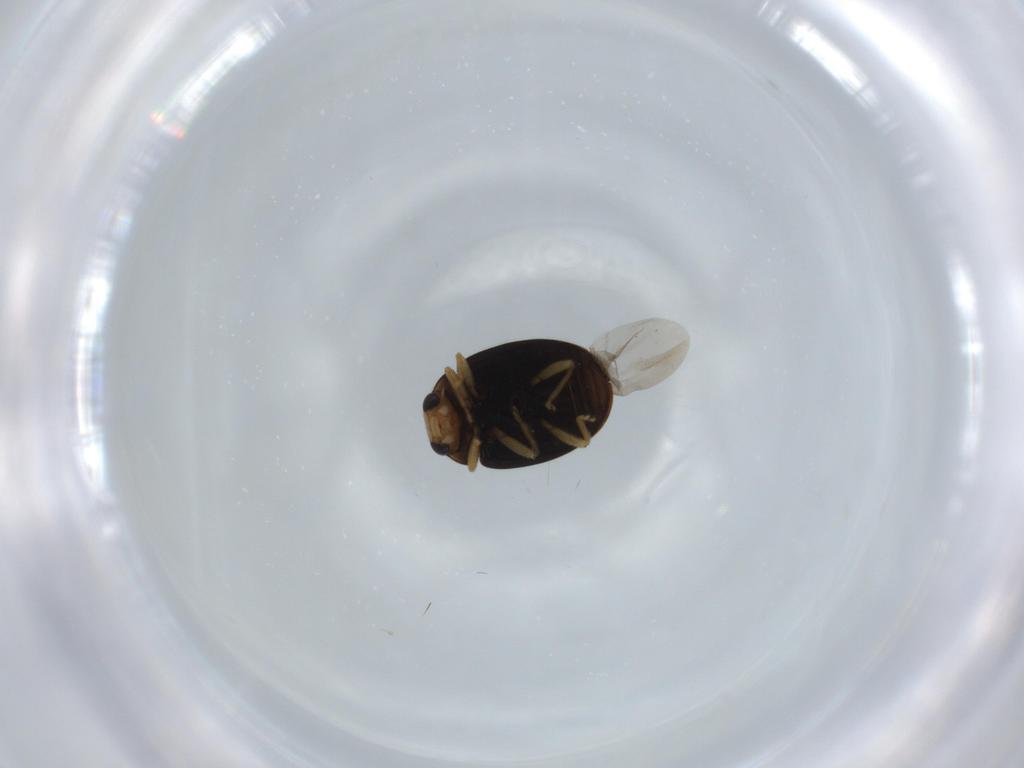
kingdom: Animalia
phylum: Arthropoda
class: Insecta
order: Coleoptera
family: Coccinellidae
